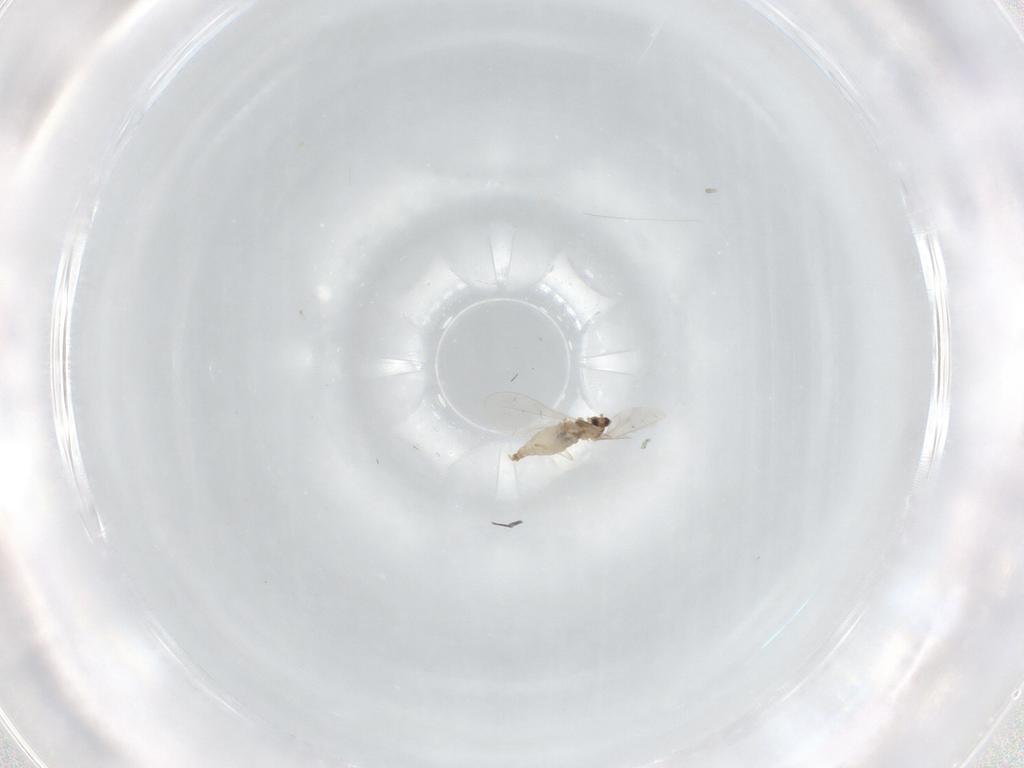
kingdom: Animalia
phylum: Arthropoda
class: Insecta
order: Diptera
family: Cecidomyiidae
